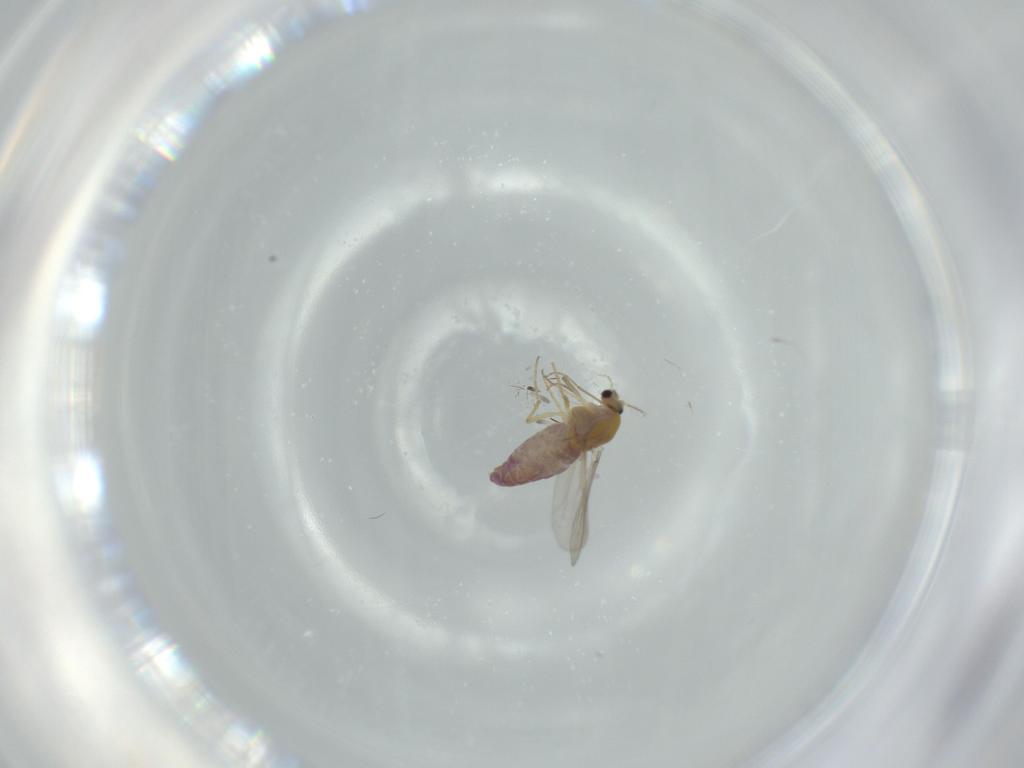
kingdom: Animalia
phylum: Arthropoda
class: Insecta
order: Diptera
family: Chironomidae
